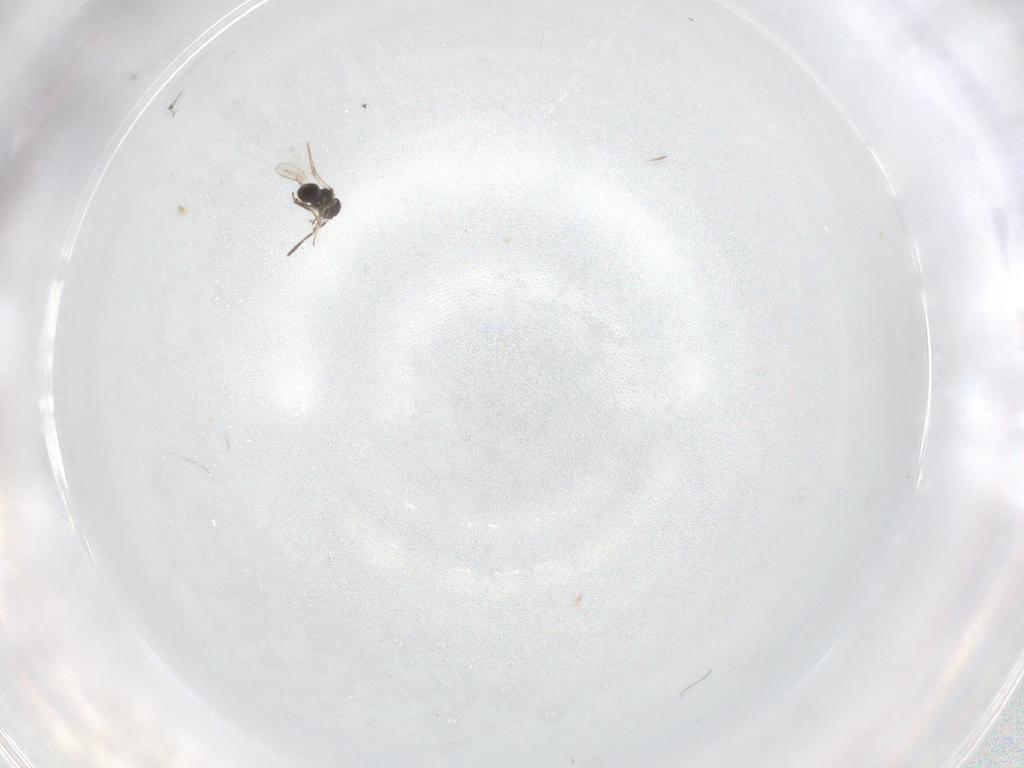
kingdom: Animalia
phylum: Arthropoda
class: Insecta
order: Hymenoptera
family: Scelionidae
